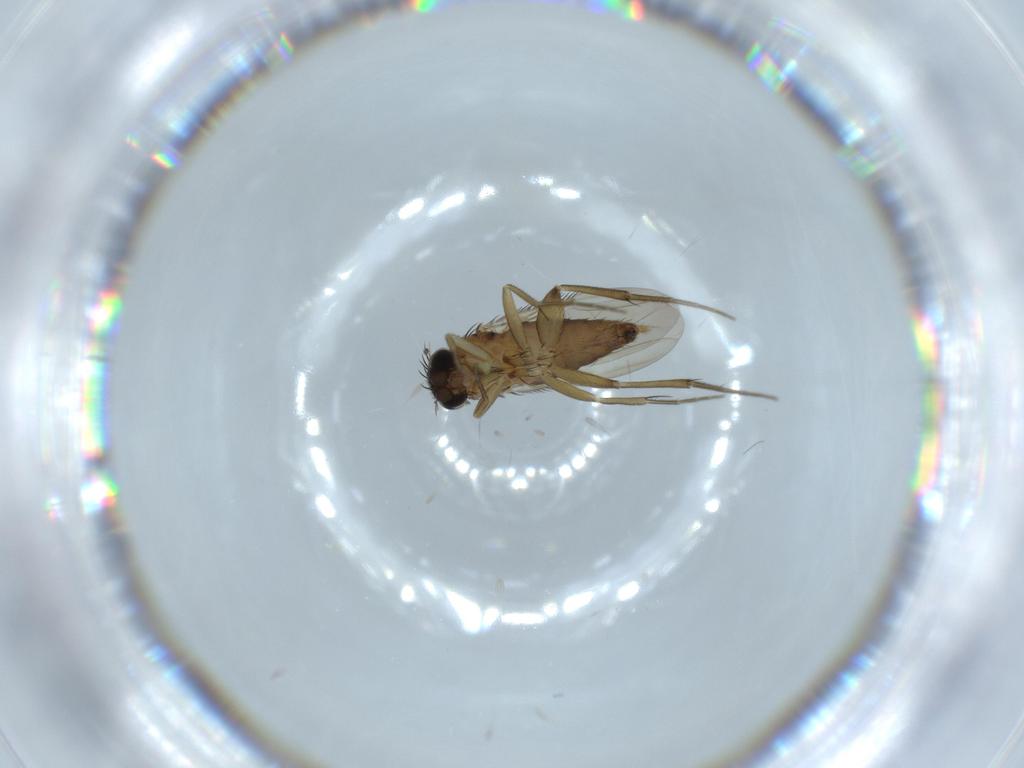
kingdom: Animalia
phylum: Arthropoda
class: Insecta
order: Diptera
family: Phoridae
